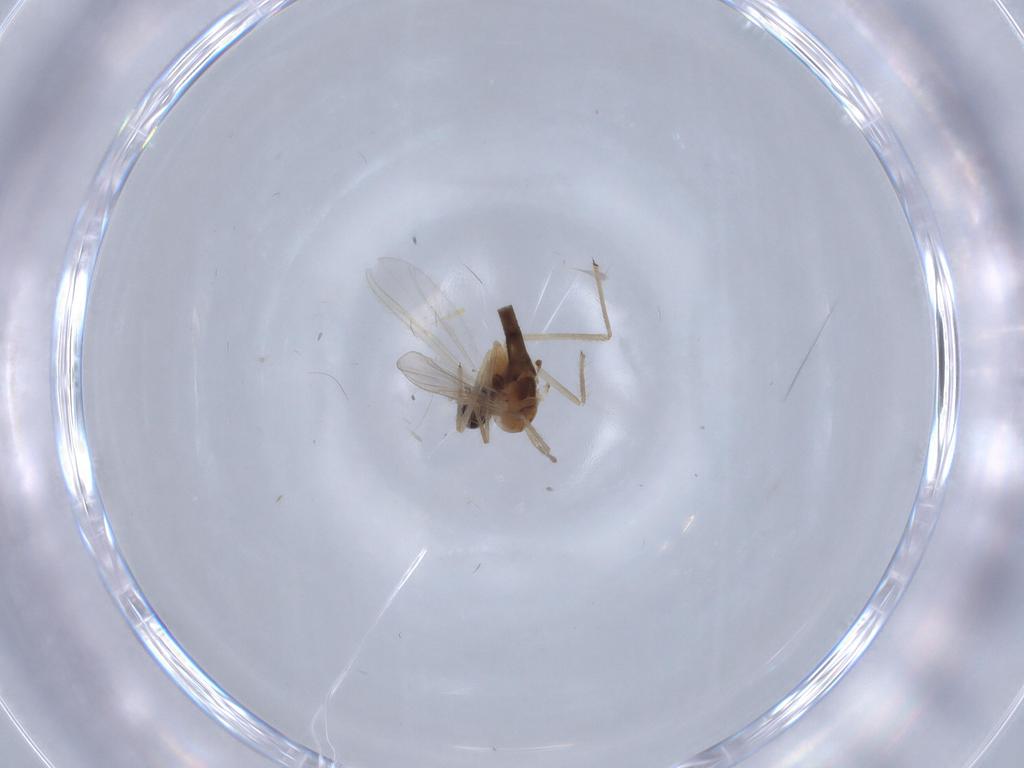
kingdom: Animalia
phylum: Arthropoda
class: Insecta
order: Diptera
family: Chironomidae
